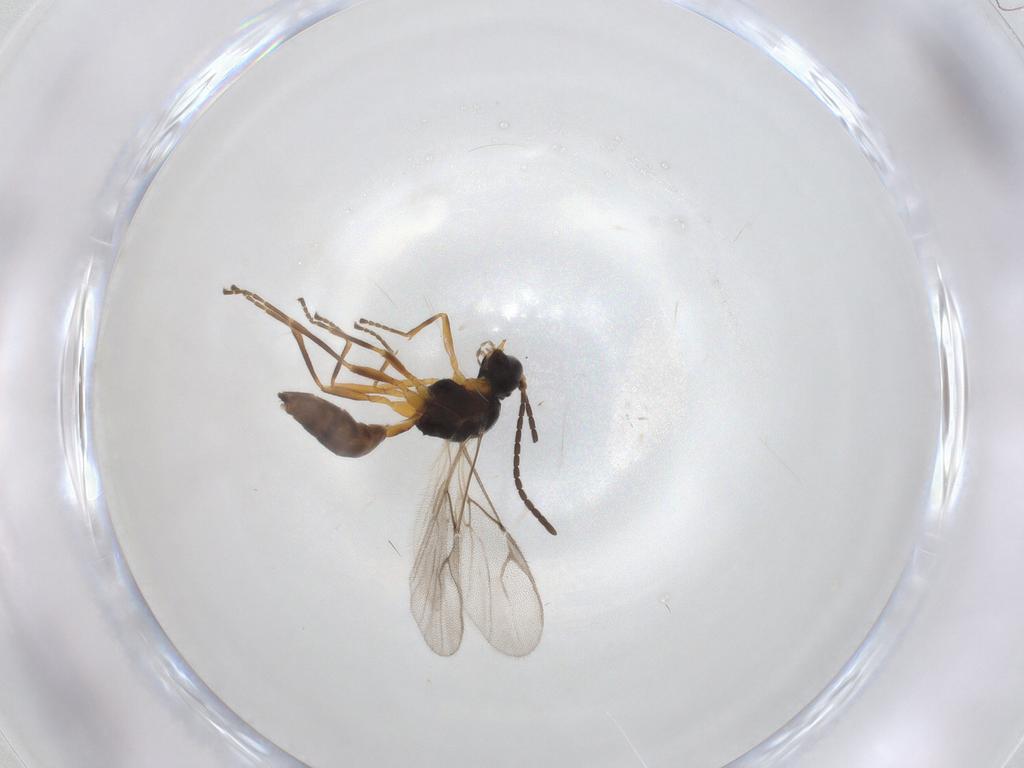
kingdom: Animalia
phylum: Arthropoda
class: Insecta
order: Hymenoptera
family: Braconidae
